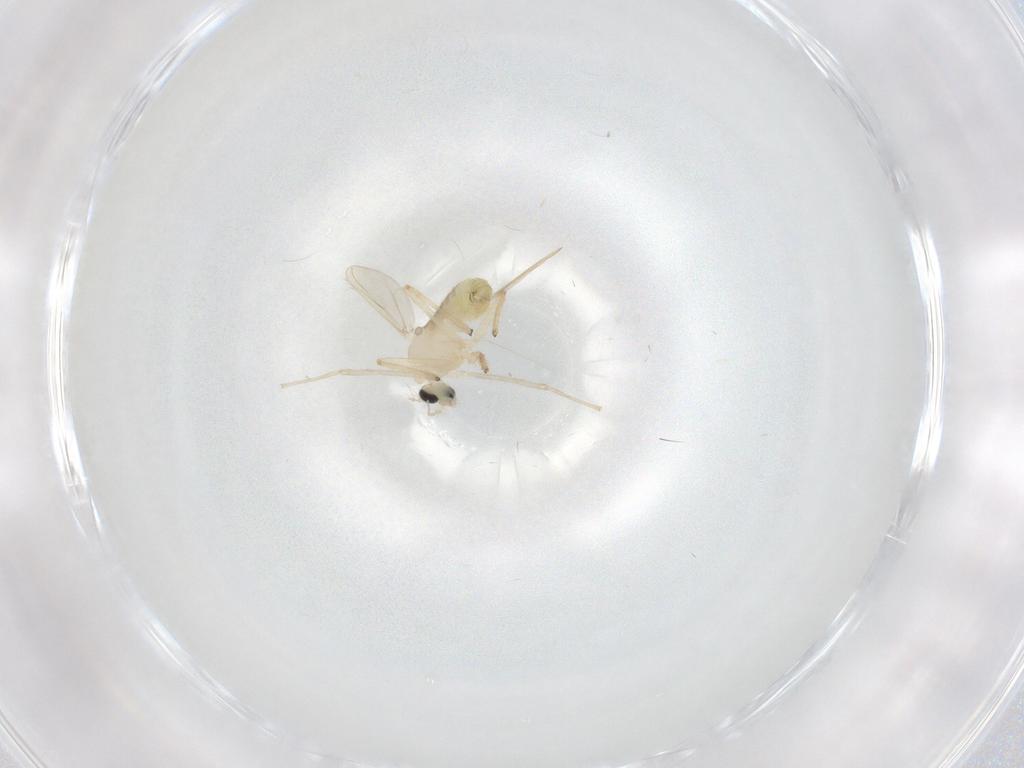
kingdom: Animalia
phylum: Arthropoda
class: Insecta
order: Diptera
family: Chironomidae
